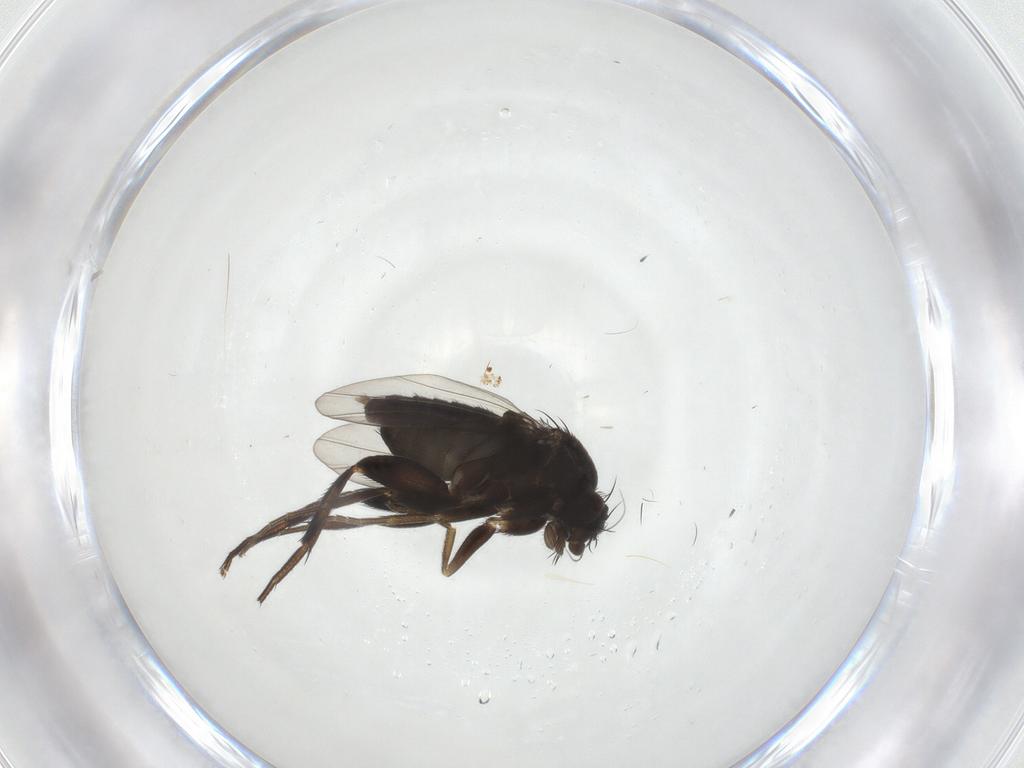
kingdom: Animalia
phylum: Arthropoda
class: Insecta
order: Diptera
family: Phoridae
